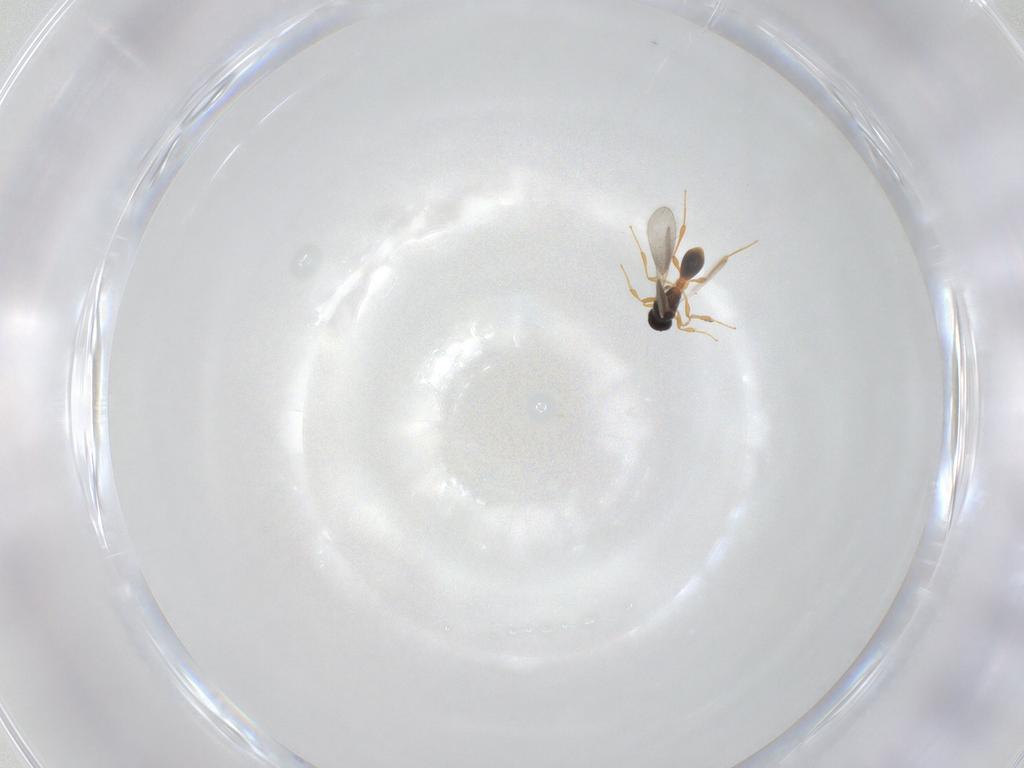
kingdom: Animalia
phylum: Arthropoda
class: Insecta
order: Hymenoptera
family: Platygastridae
